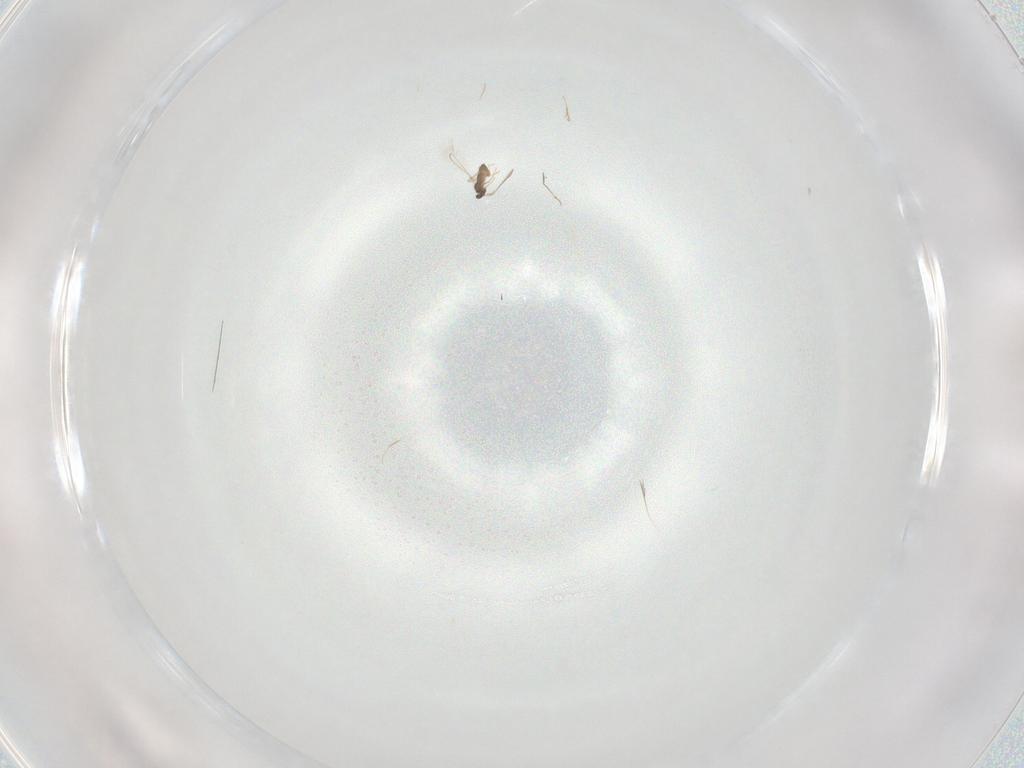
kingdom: Animalia
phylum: Arthropoda
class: Insecta
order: Hymenoptera
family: Mymaridae
